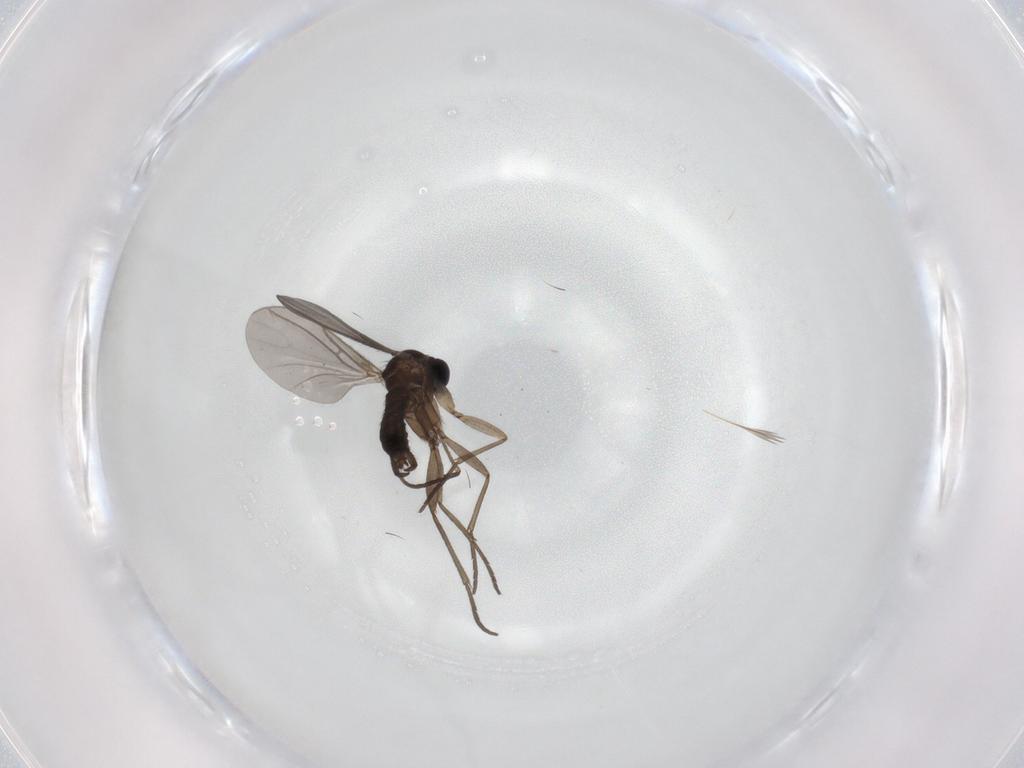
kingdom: Animalia
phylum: Arthropoda
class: Insecta
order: Diptera
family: Sciaridae
